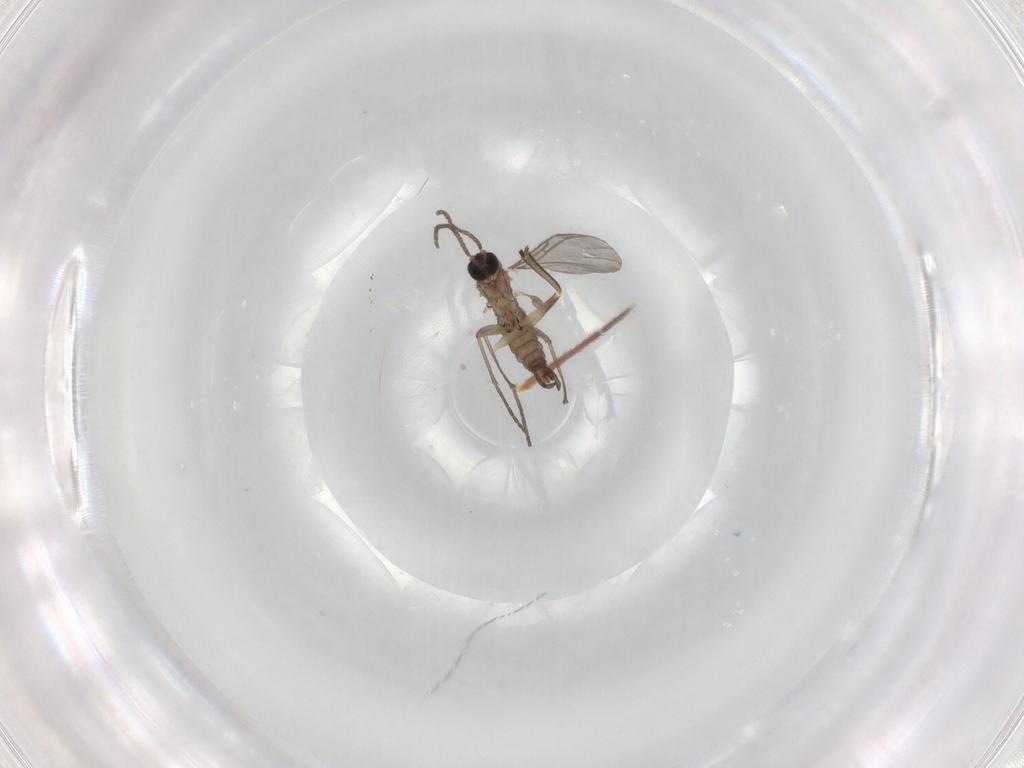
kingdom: Animalia
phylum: Arthropoda
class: Insecta
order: Diptera
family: Mycetophilidae
